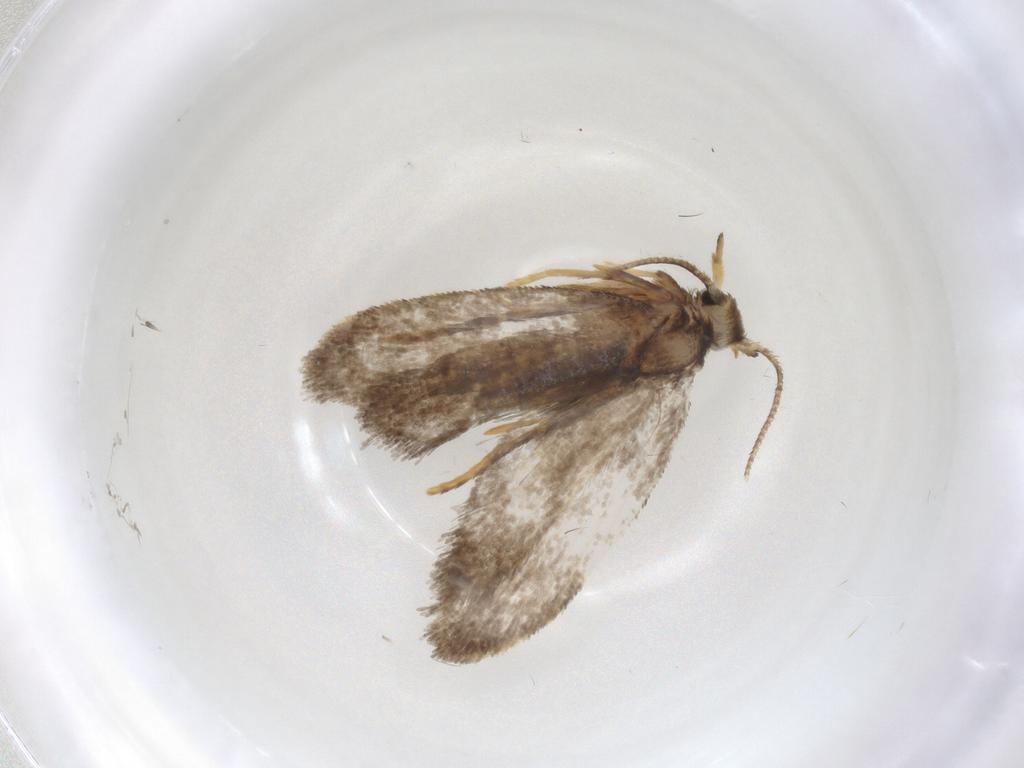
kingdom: Animalia
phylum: Arthropoda
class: Insecta
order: Lepidoptera
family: Psychidae
